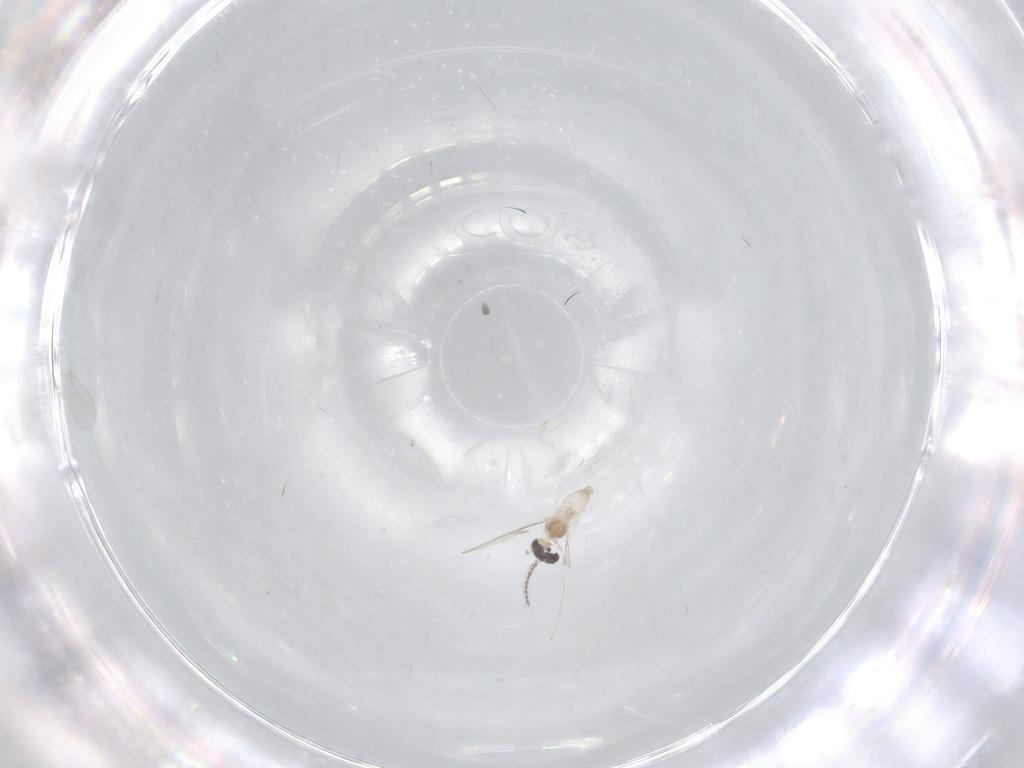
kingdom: Animalia
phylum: Arthropoda
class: Insecta
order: Diptera
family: Cecidomyiidae
